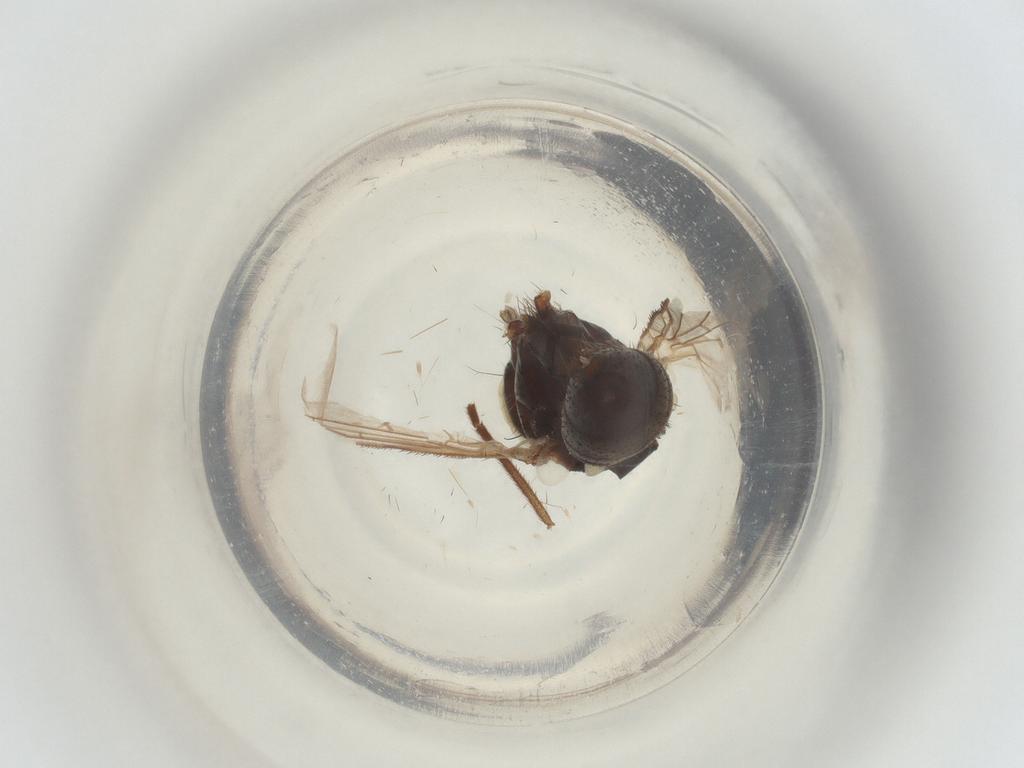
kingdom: Animalia
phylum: Arthropoda
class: Insecta
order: Diptera
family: Muscidae
